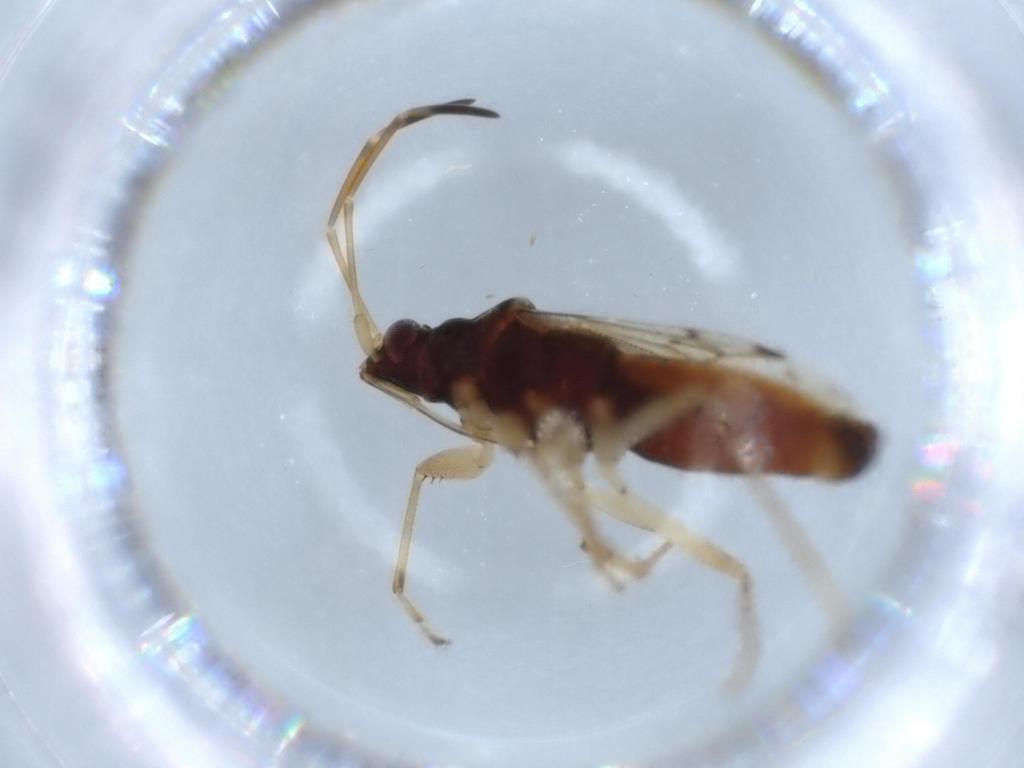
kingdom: Animalia
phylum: Arthropoda
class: Insecta
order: Hemiptera
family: Rhyparochromidae
